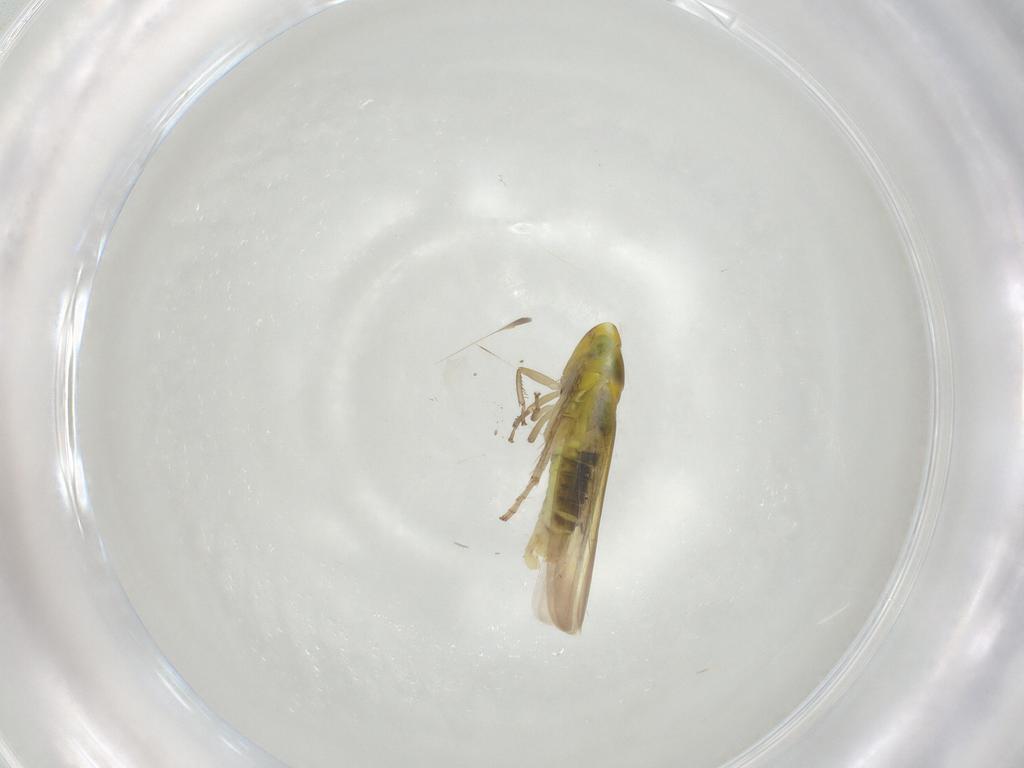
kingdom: Animalia
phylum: Arthropoda
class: Insecta
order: Hemiptera
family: Cicadellidae
